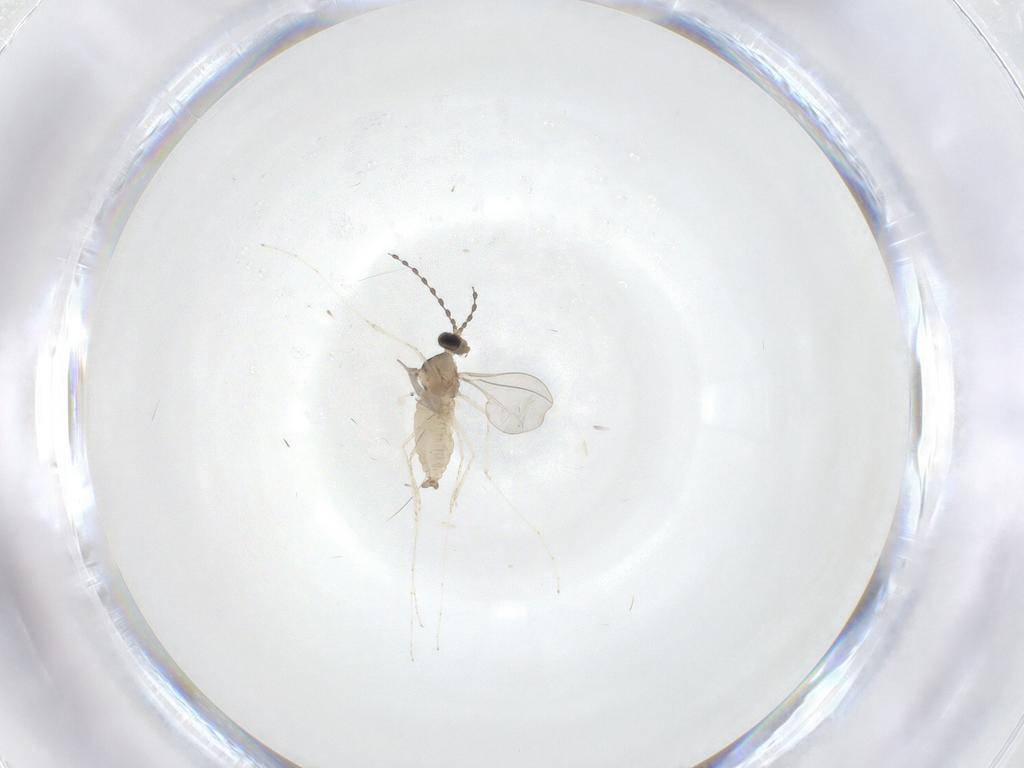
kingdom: Animalia
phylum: Arthropoda
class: Insecta
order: Diptera
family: Cecidomyiidae
